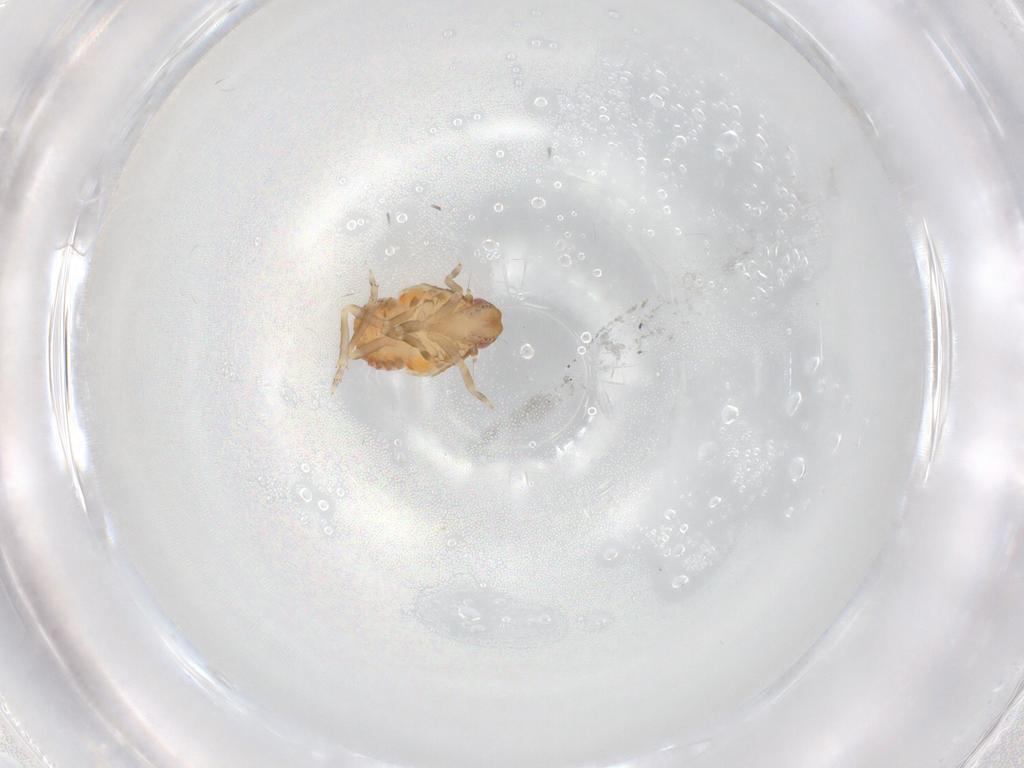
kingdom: Animalia
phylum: Arthropoda
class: Insecta
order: Hemiptera
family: Flatidae
